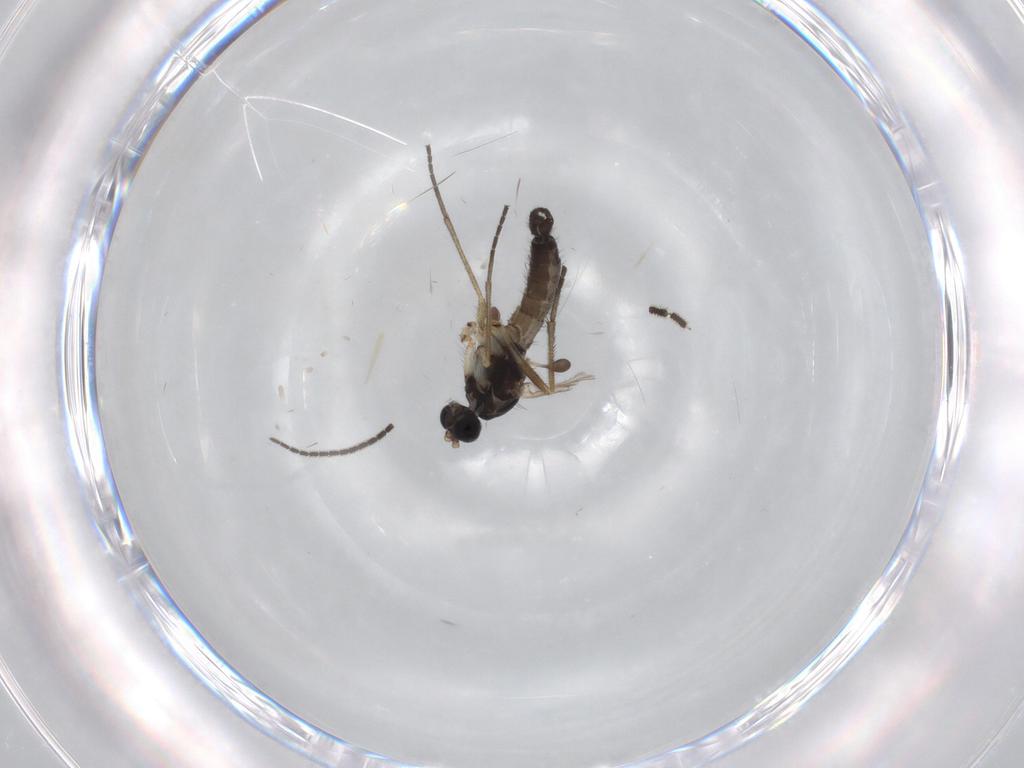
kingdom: Animalia
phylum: Arthropoda
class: Insecta
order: Diptera
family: Sciaridae
